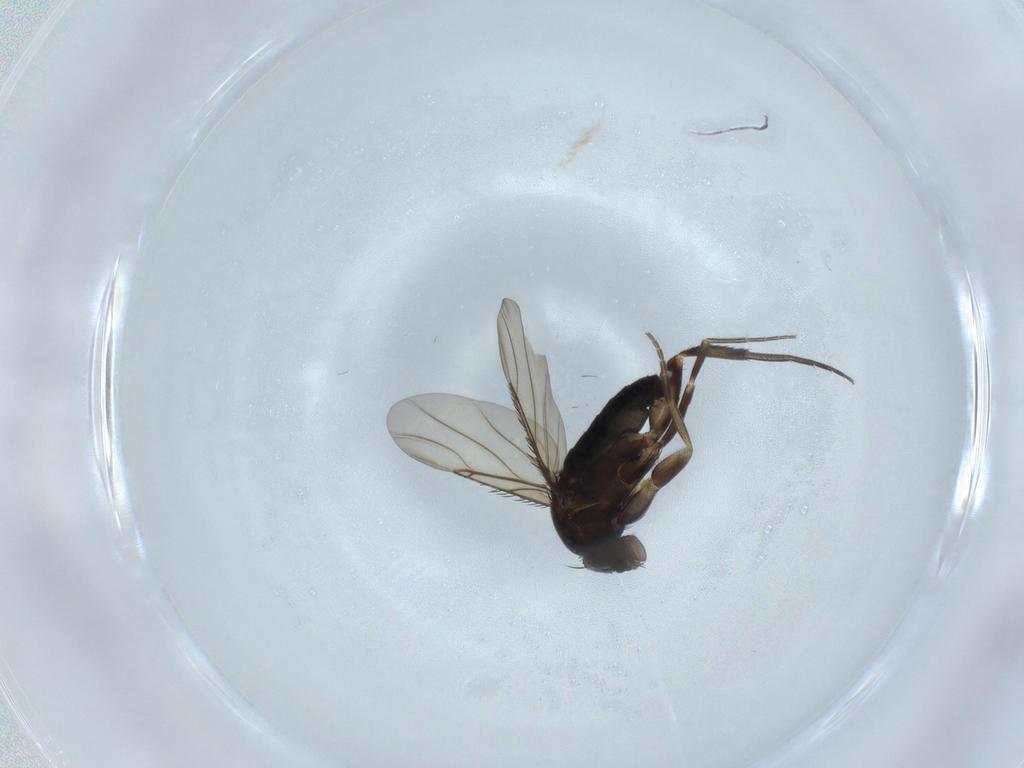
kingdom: Animalia
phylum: Arthropoda
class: Insecta
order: Diptera
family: Phoridae
